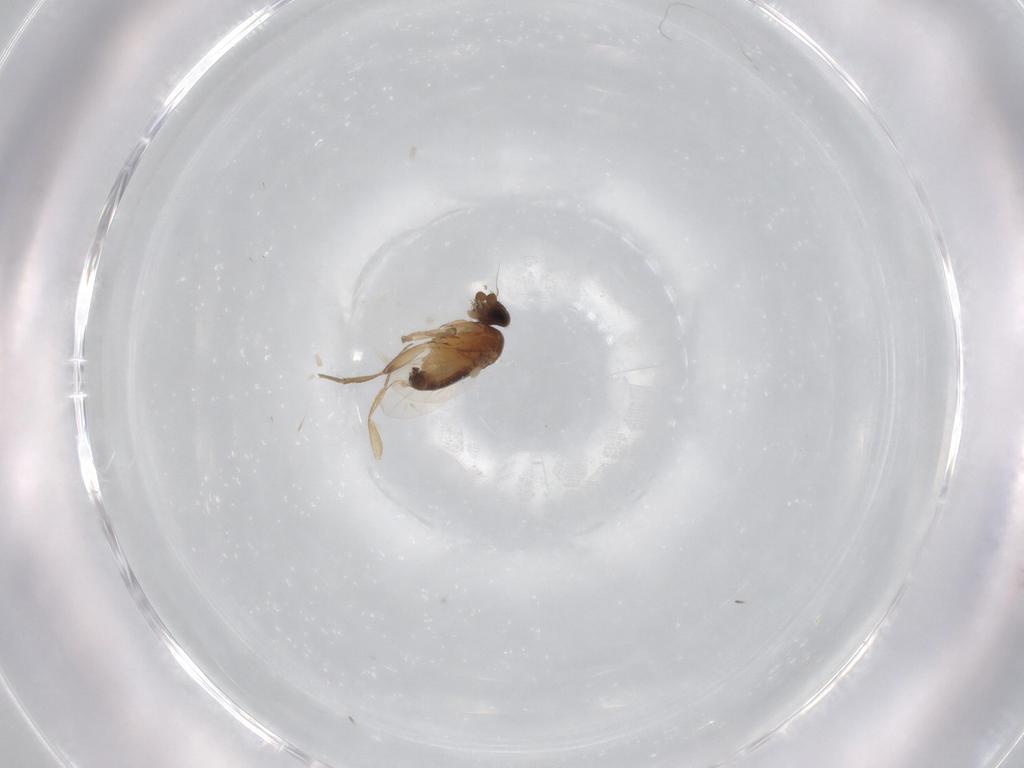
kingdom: Animalia
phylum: Arthropoda
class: Insecta
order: Diptera
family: Phoridae
